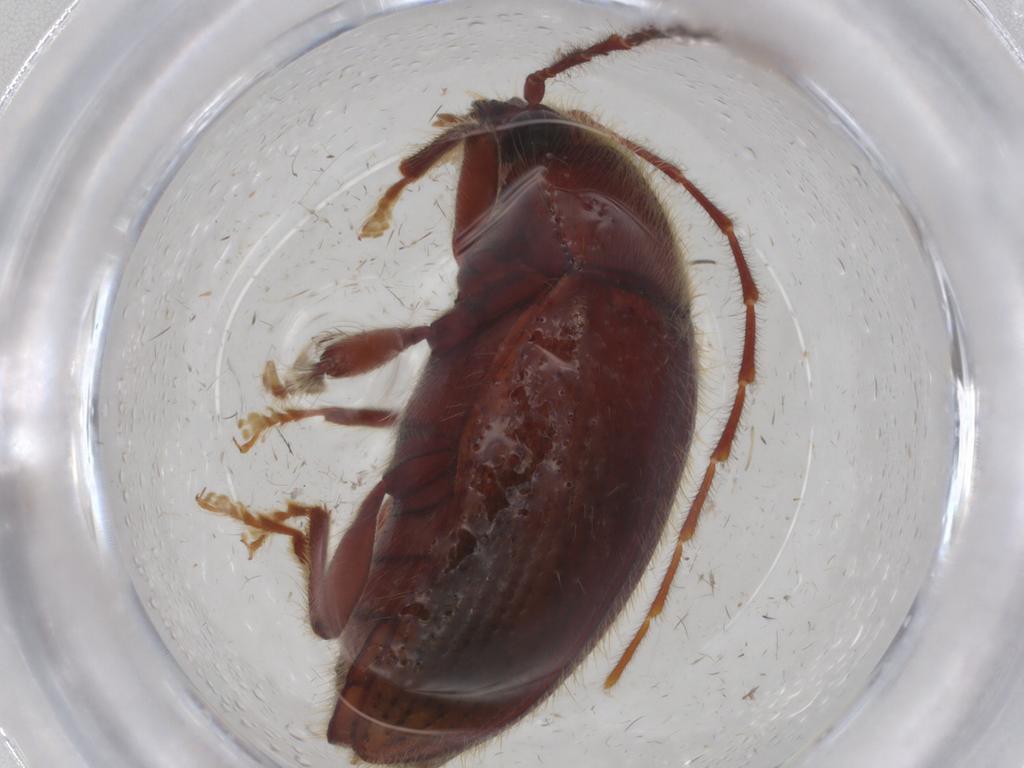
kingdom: Animalia
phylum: Arthropoda
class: Insecta
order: Coleoptera
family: Artematopodidae
